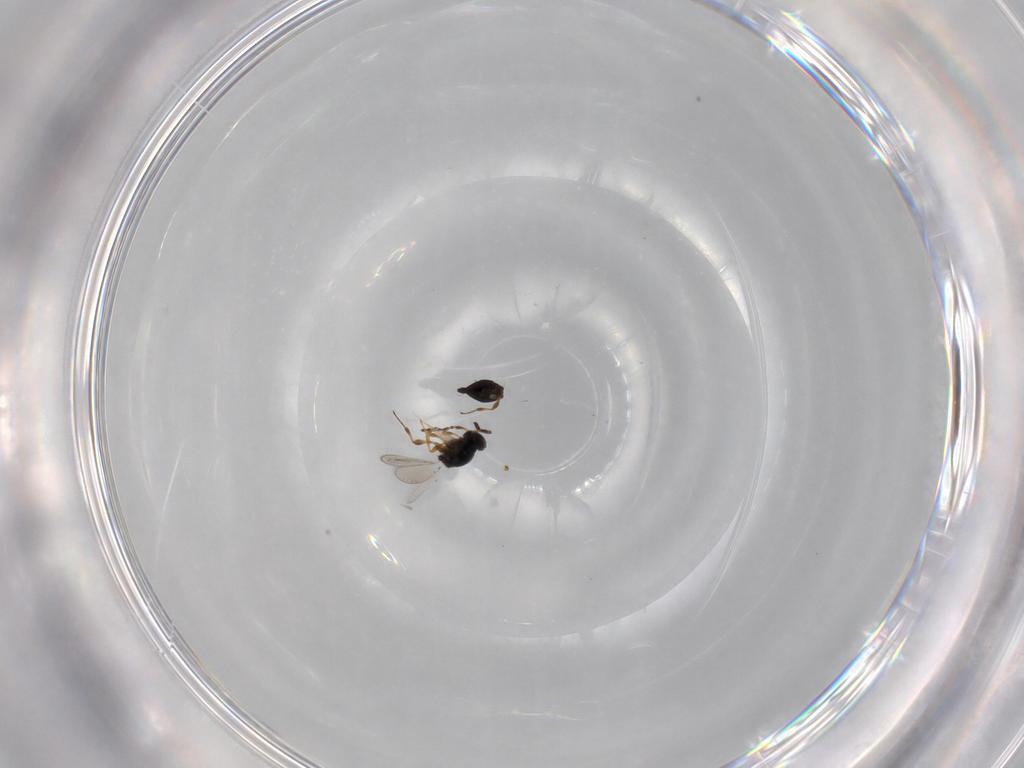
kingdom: Animalia
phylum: Arthropoda
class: Insecta
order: Hymenoptera
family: Platygastridae
